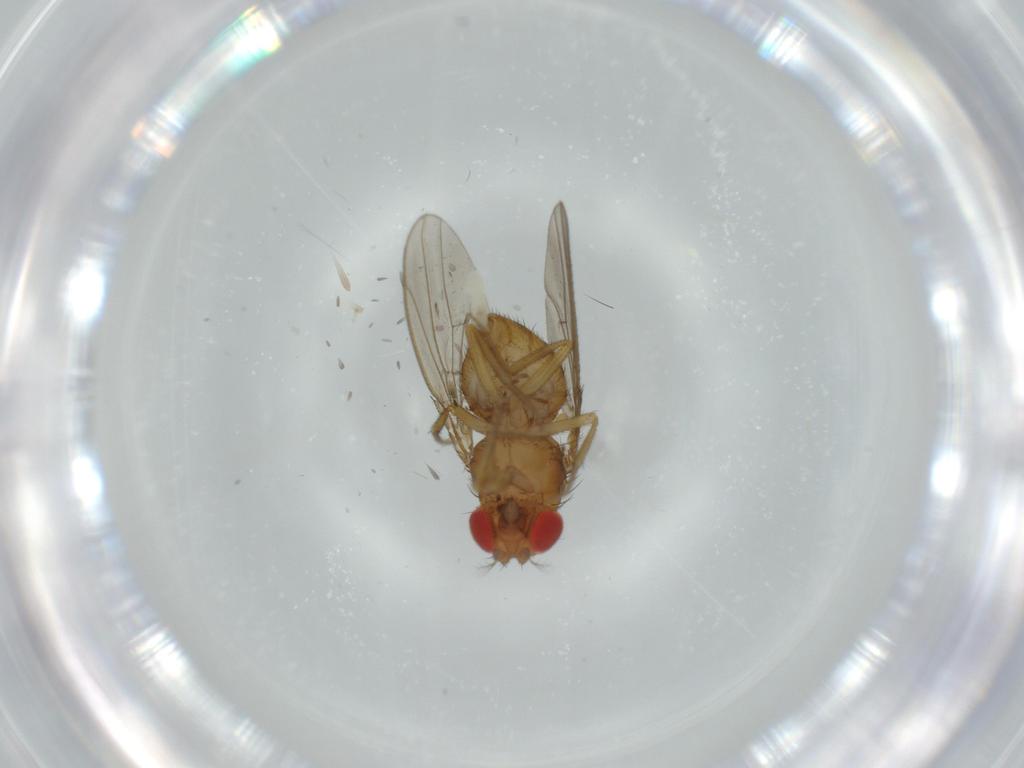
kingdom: Animalia
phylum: Arthropoda
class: Insecta
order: Diptera
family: Drosophilidae
